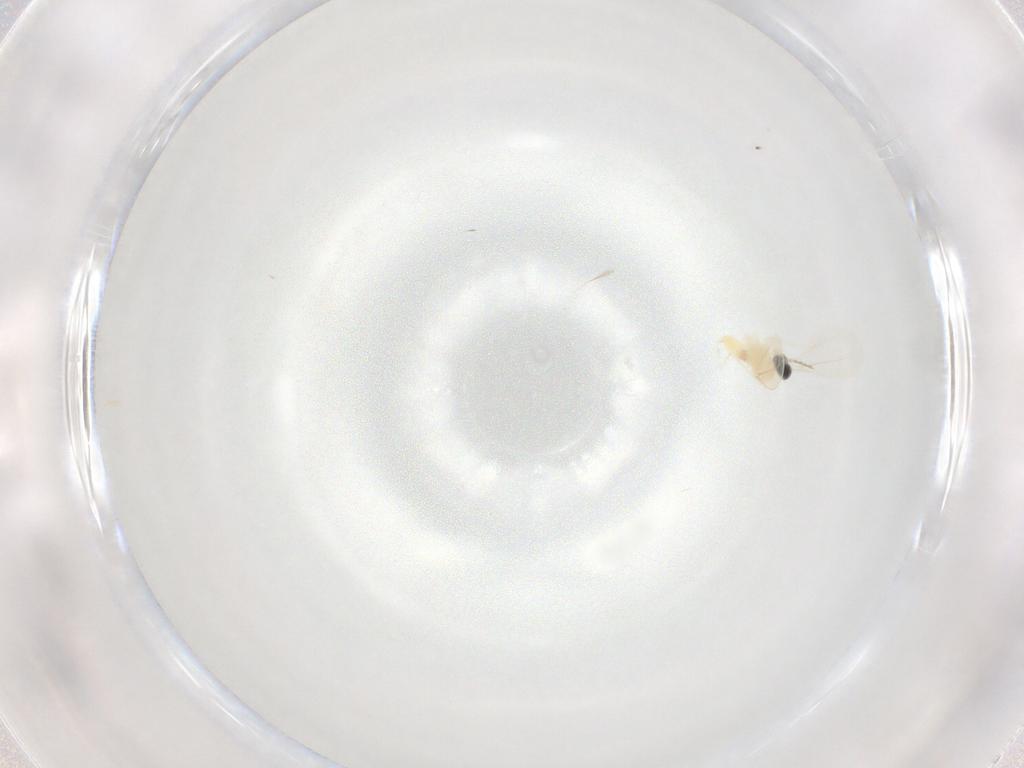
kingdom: Animalia
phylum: Arthropoda
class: Insecta
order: Diptera
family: Cecidomyiidae
